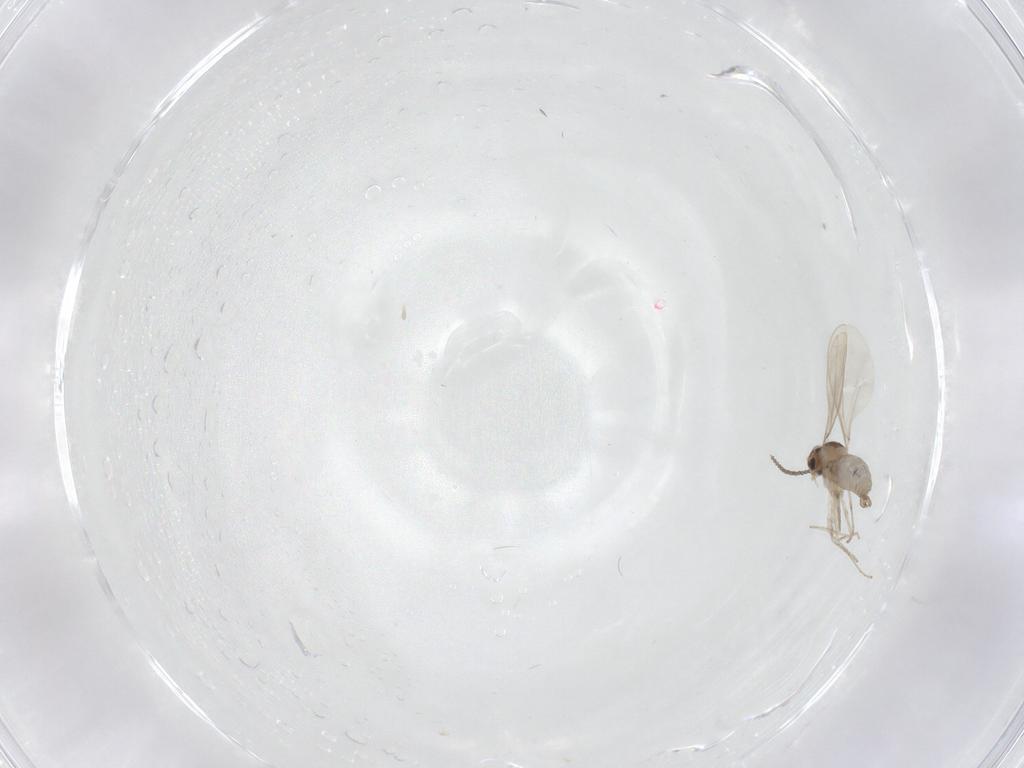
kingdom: Animalia
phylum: Arthropoda
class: Insecta
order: Diptera
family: Cecidomyiidae
